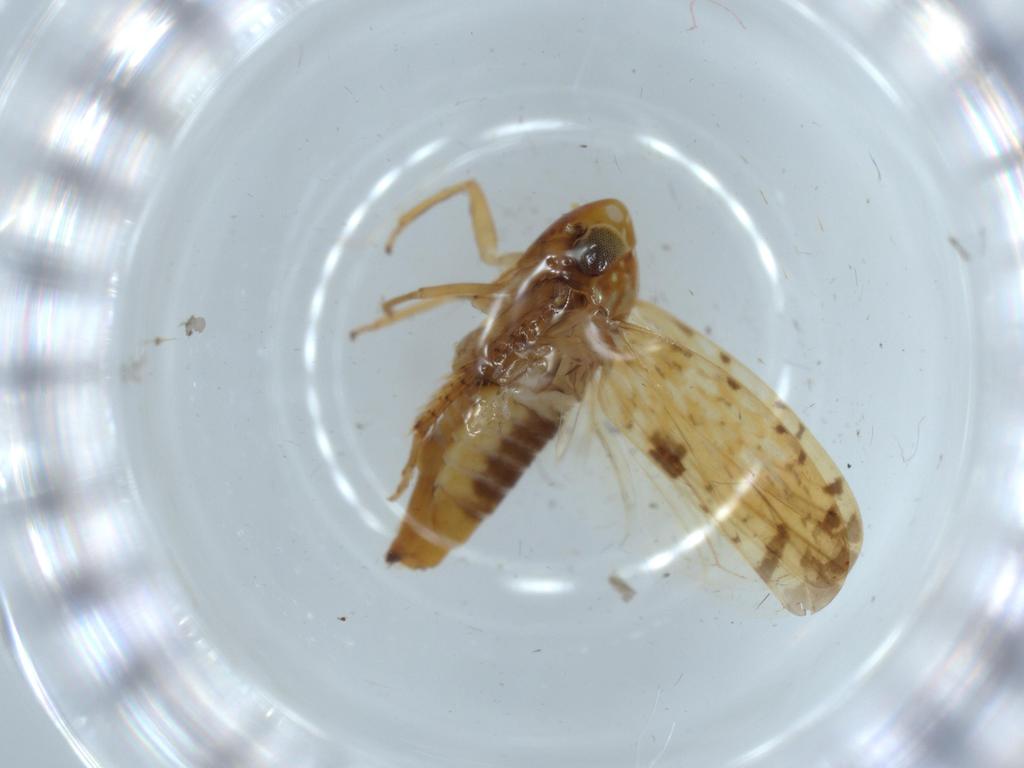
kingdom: Animalia
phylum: Arthropoda
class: Insecta
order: Hemiptera
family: Cicadellidae
